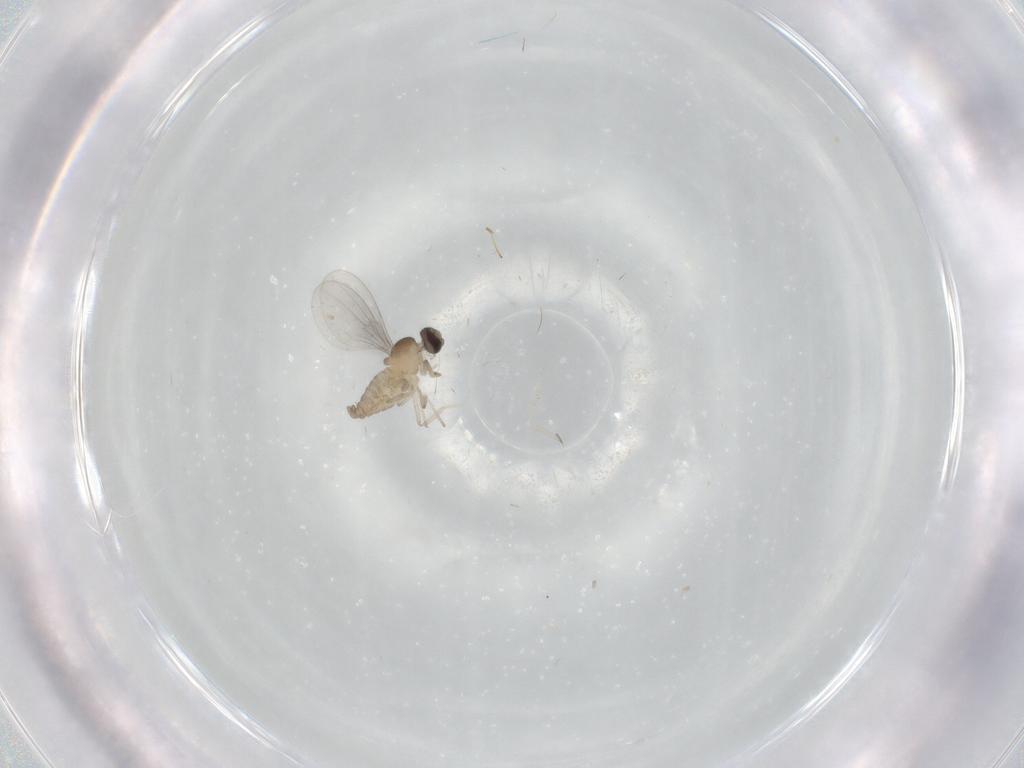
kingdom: Animalia
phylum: Arthropoda
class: Insecta
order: Diptera
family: Cecidomyiidae
